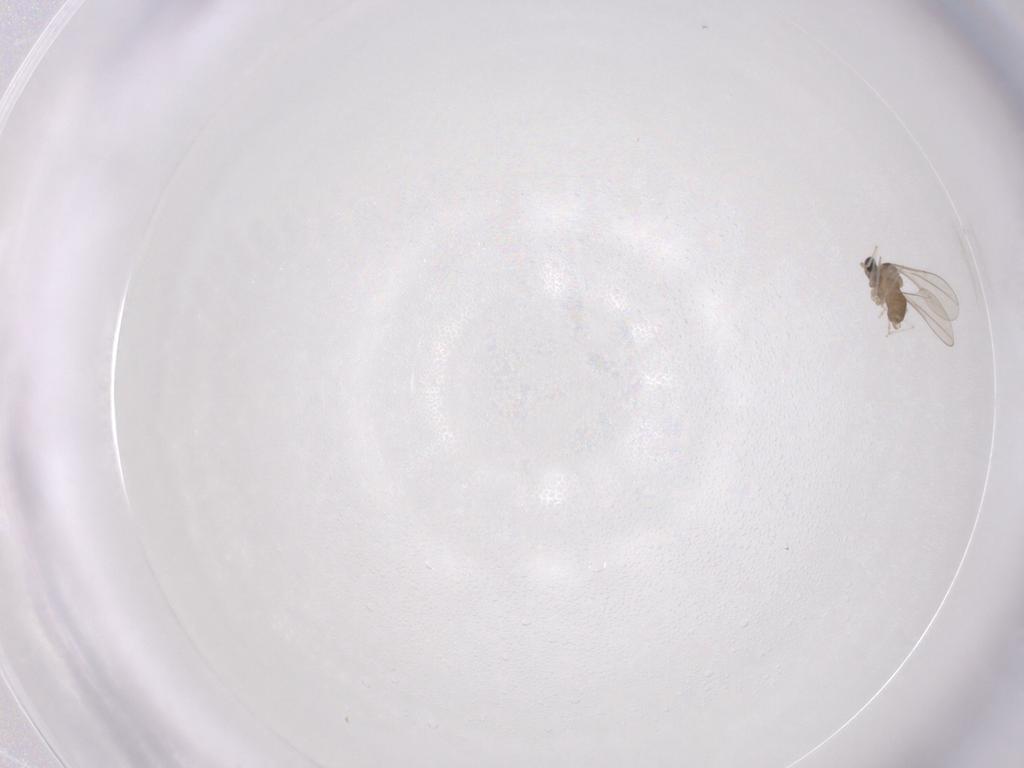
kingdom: Animalia
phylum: Arthropoda
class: Insecta
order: Diptera
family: Cecidomyiidae
